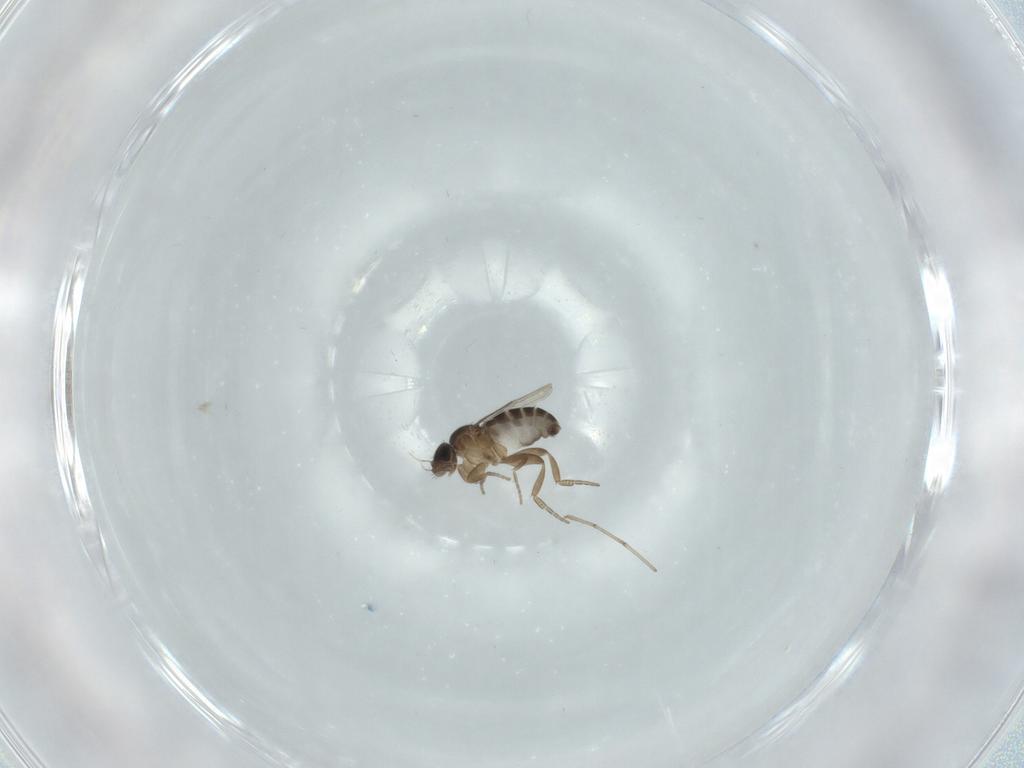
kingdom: Animalia
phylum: Arthropoda
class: Insecta
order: Diptera
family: Phoridae
